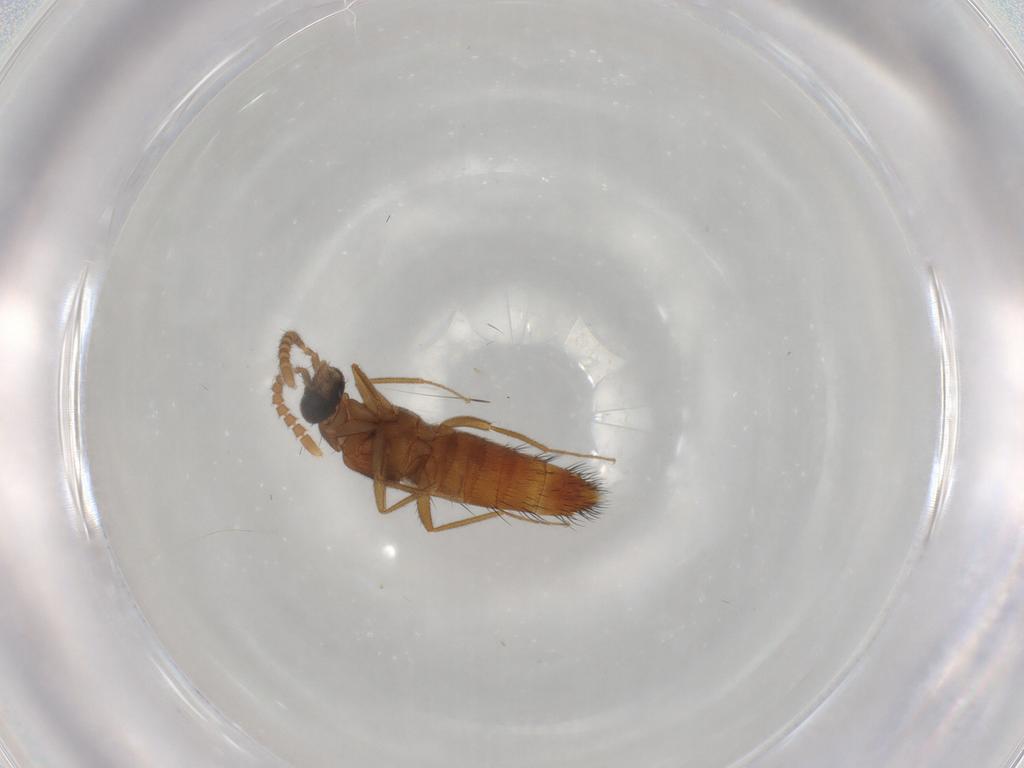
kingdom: Animalia
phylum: Arthropoda
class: Insecta
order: Coleoptera
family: Staphylinidae
